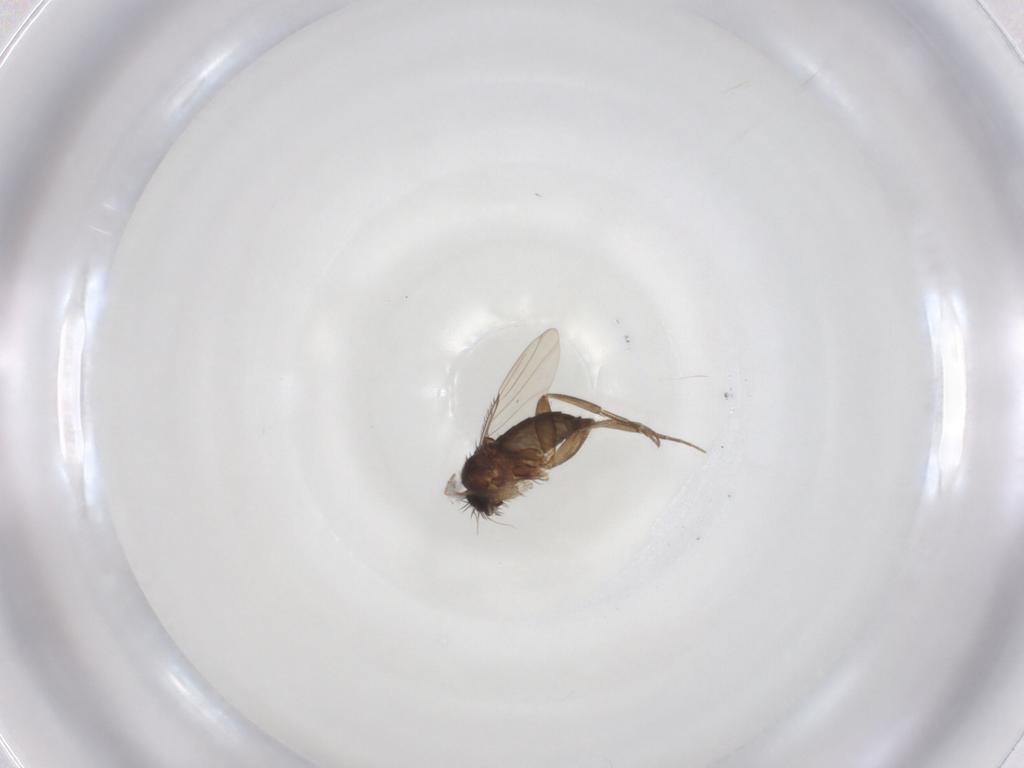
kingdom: Animalia
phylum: Arthropoda
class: Insecta
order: Diptera
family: Phoridae
